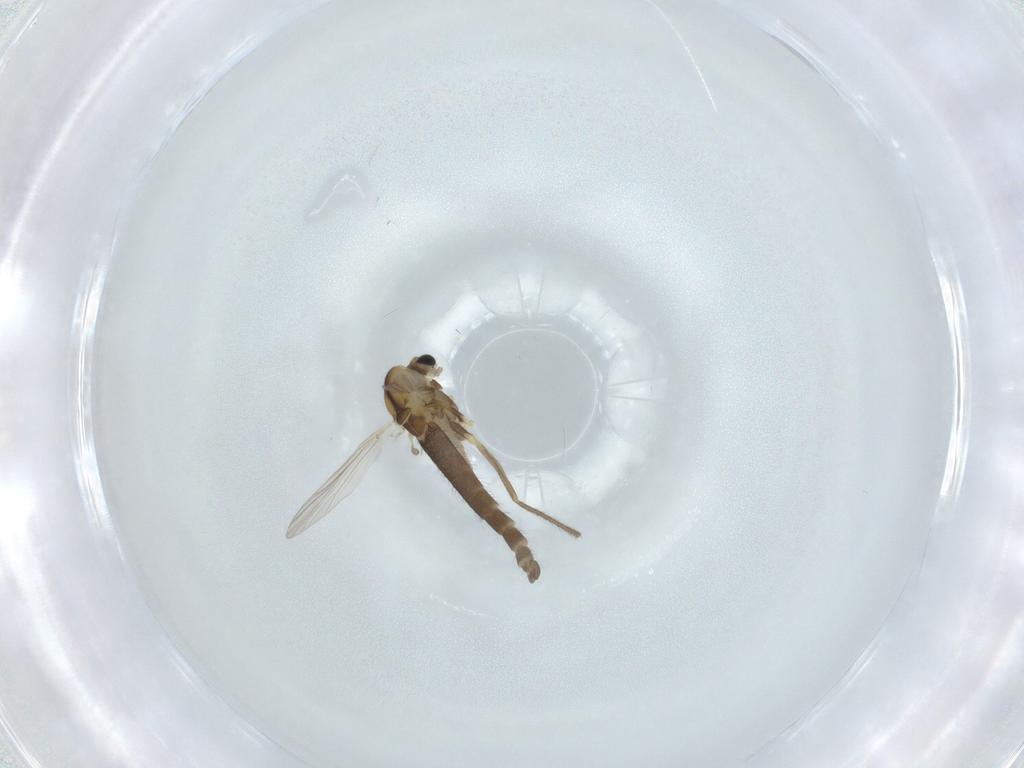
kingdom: Animalia
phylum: Arthropoda
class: Insecta
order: Diptera
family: Chironomidae
